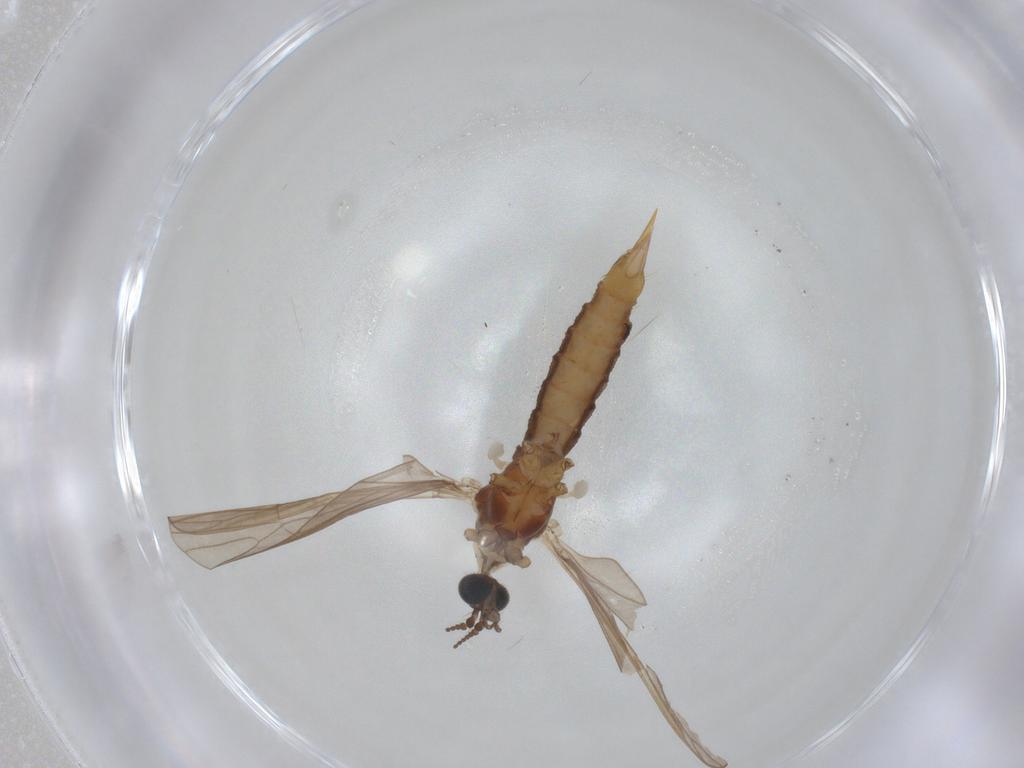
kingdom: Animalia
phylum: Arthropoda
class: Insecta
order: Diptera
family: Limoniidae
